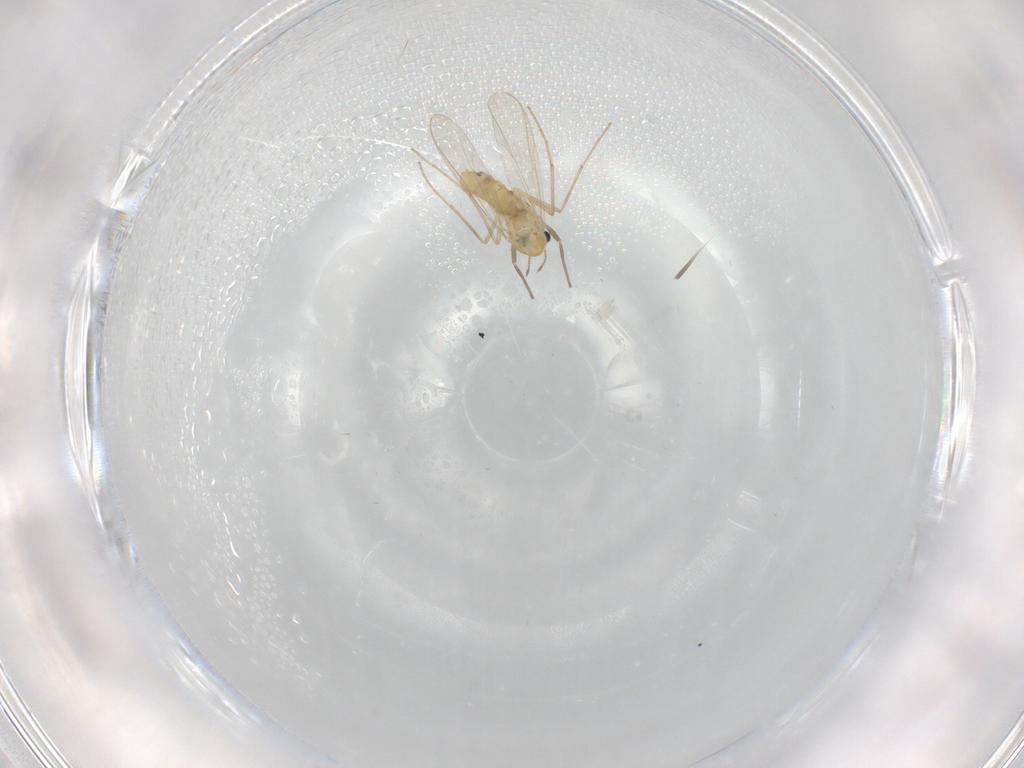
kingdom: Animalia
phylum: Arthropoda
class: Insecta
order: Diptera
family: Chironomidae
